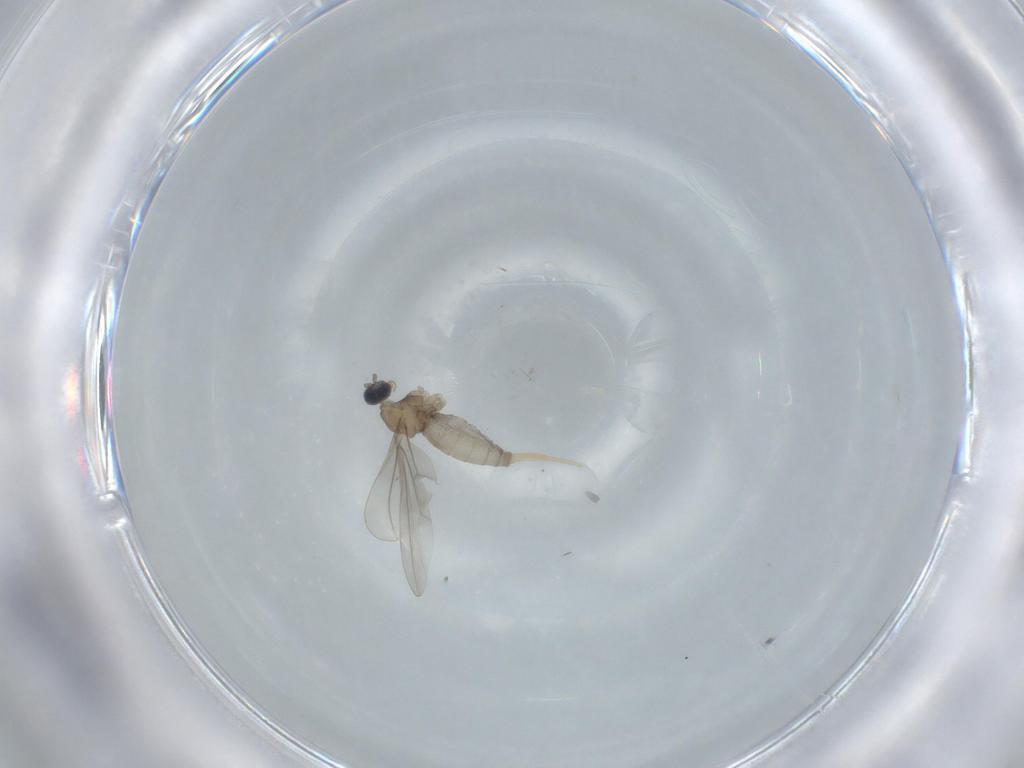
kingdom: Animalia
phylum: Arthropoda
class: Insecta
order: Diptera
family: Cecidomyiidae
